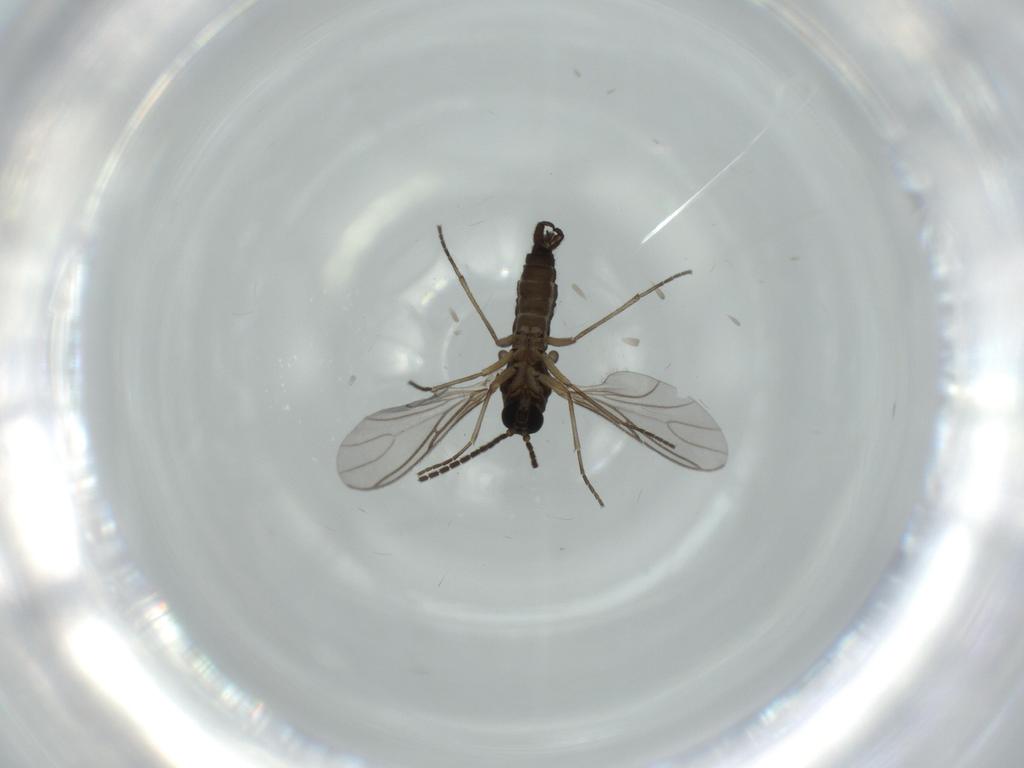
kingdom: Animalia
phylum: Arthropoda
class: Insecta
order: Diptera
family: Sciaridae
